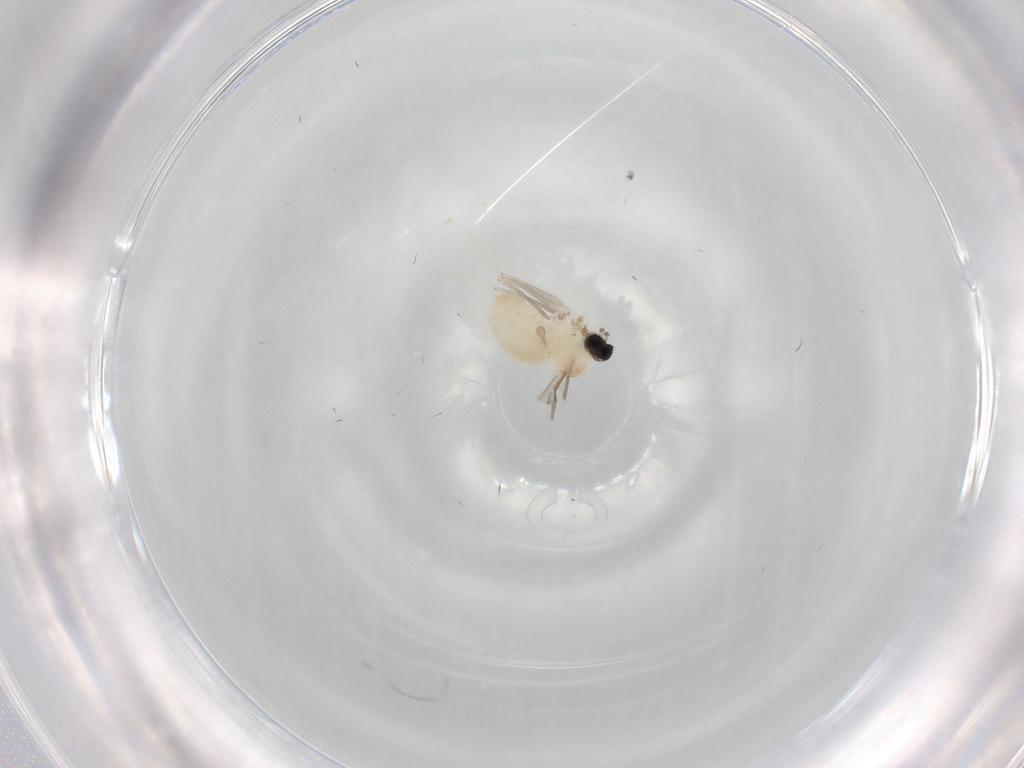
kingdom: Animalia
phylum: Arthropoda
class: Insecta
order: Diptera
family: Cecidomyiidae
